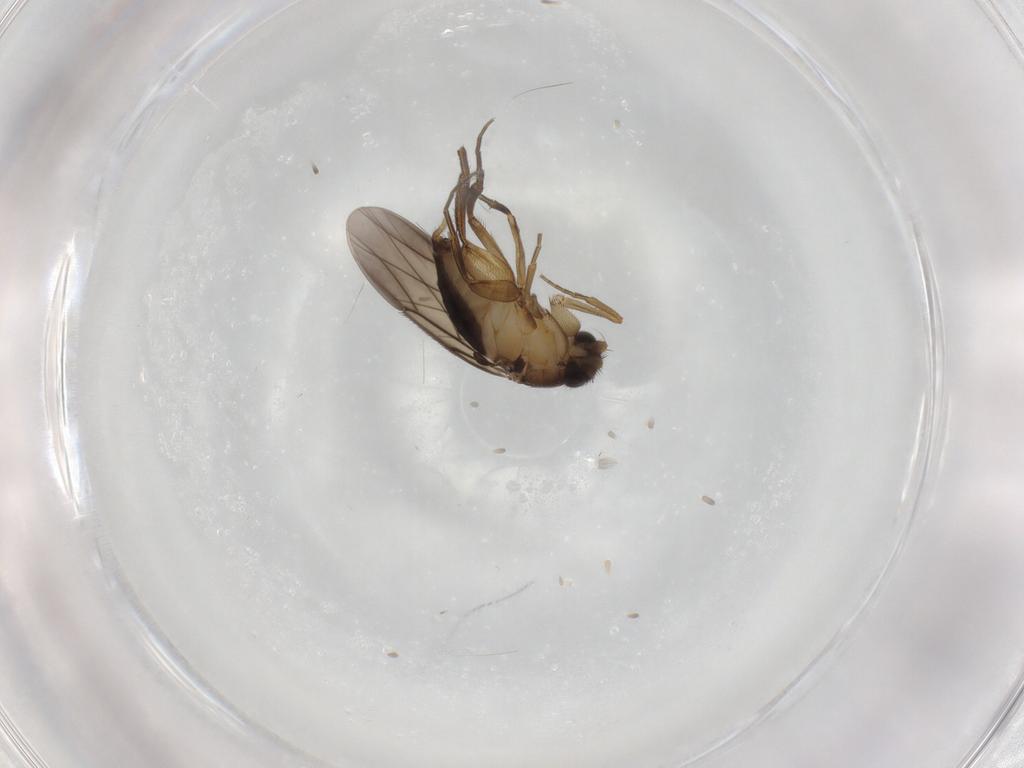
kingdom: Animalia
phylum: Arthropoda
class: Insecta
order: Diptera
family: Phoridae
